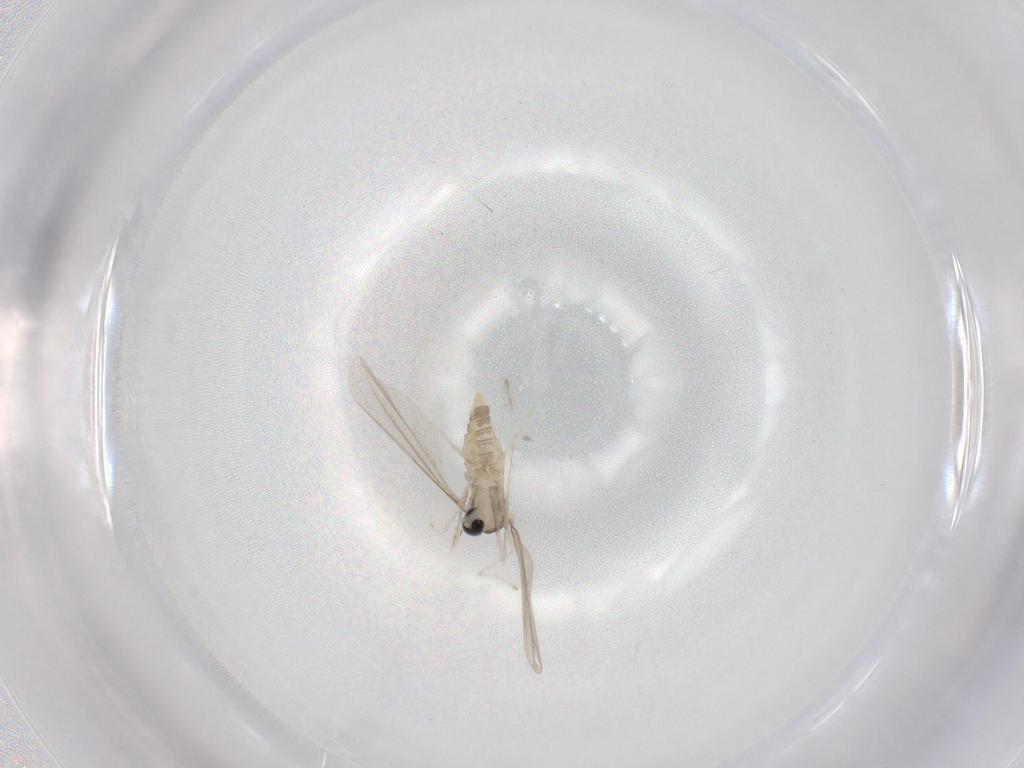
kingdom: Animalia
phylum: Arthropoda
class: Insecta
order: Diptera
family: Cecidomyiidae
